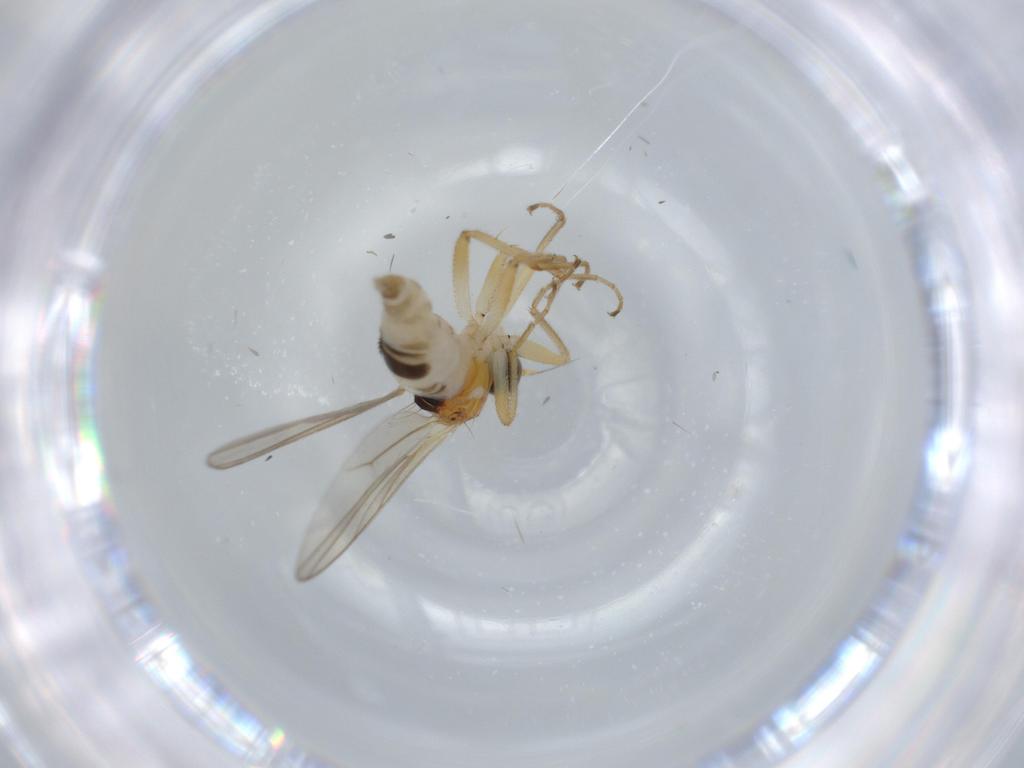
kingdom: Animalia
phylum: Arthropoda
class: Insecta
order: Diptera
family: Hybotidae
